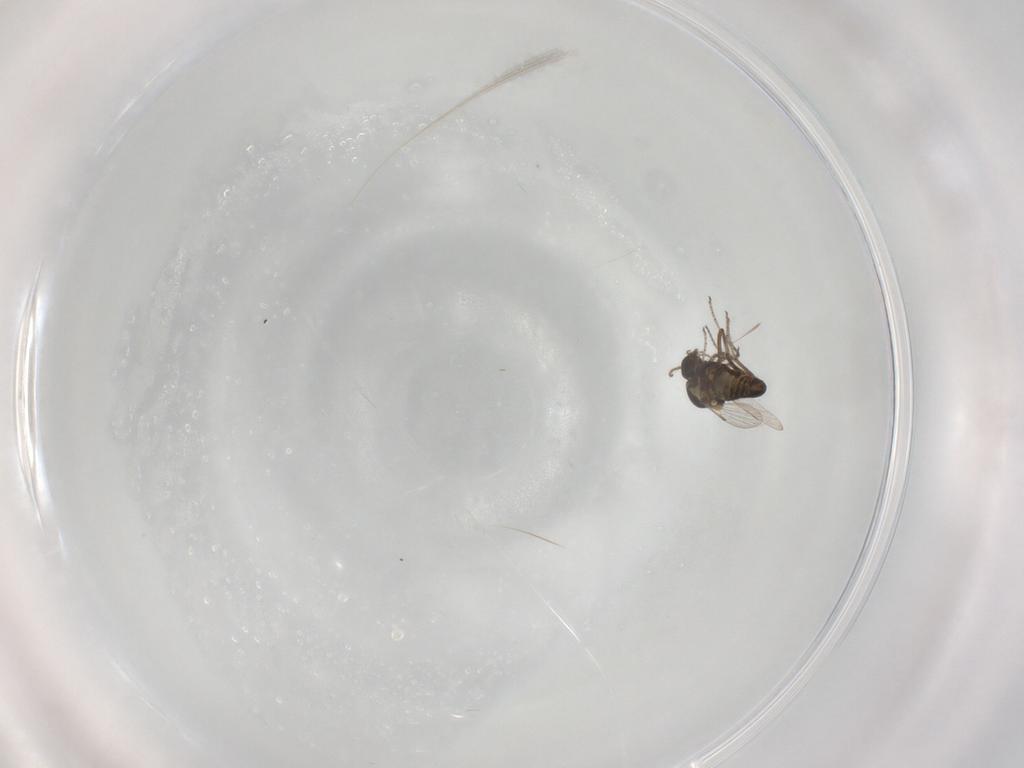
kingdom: Animalia
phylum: Arthropoda
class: Insecta
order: Diptera
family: Ceratopogonidae
